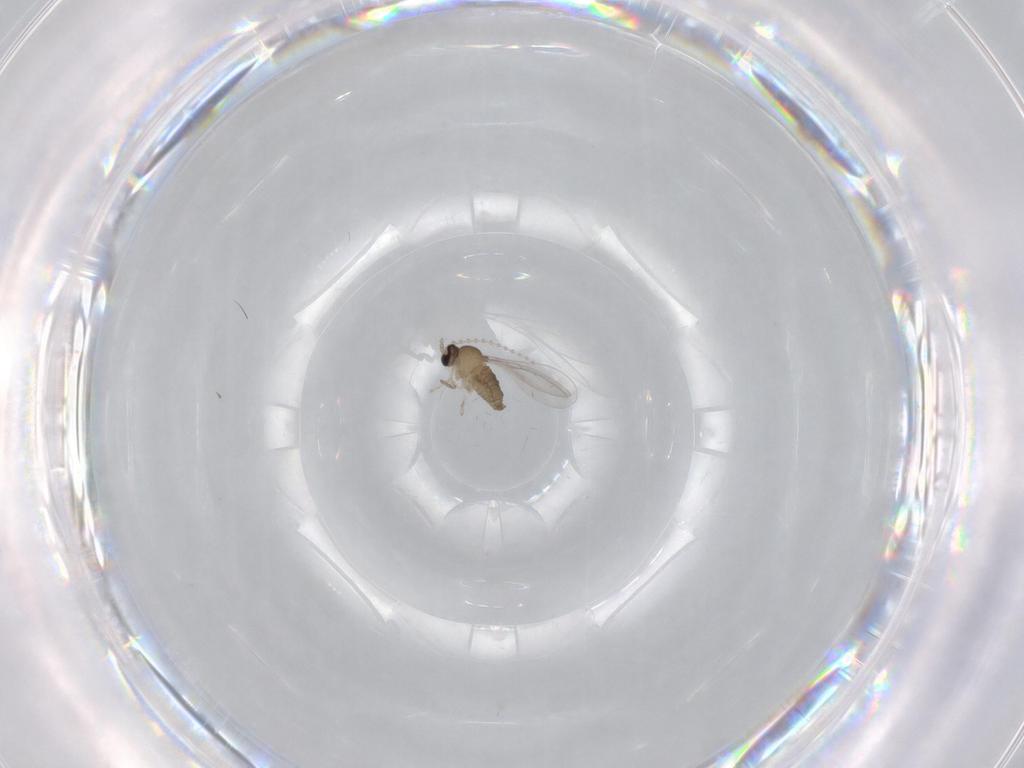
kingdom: Animalia
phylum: Arthropoda
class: Insecta
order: Diptera
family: Cecidomyiidae
